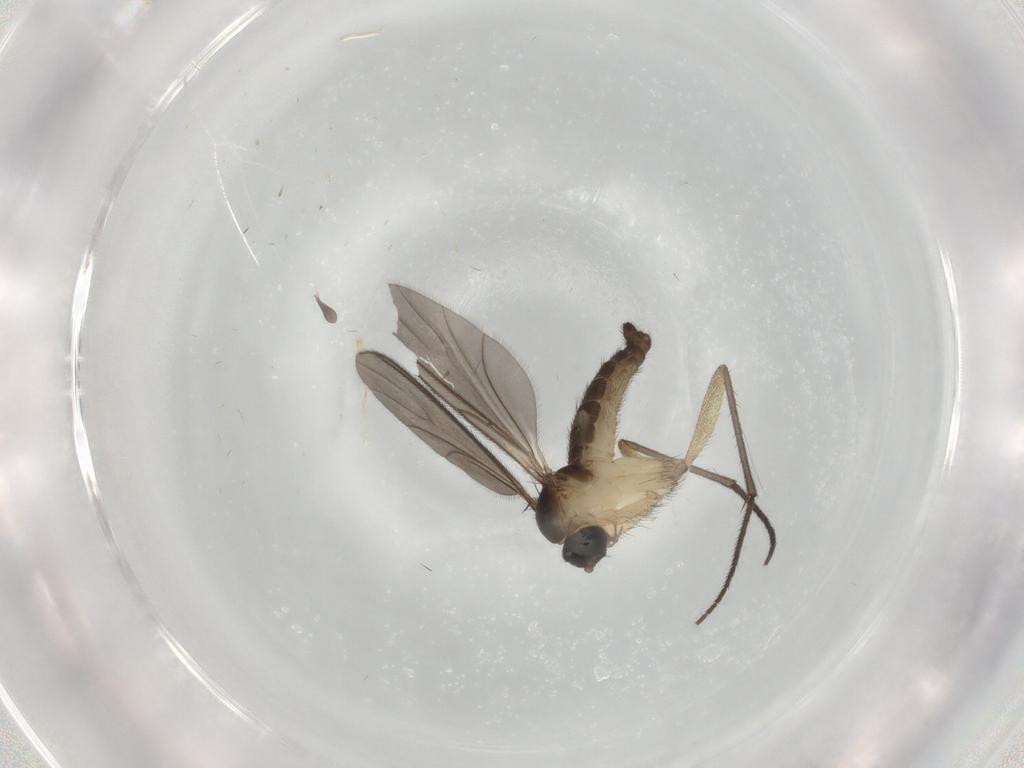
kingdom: Animalia
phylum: Arthropoda
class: Insecta
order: Diptera
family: Sciaridae
